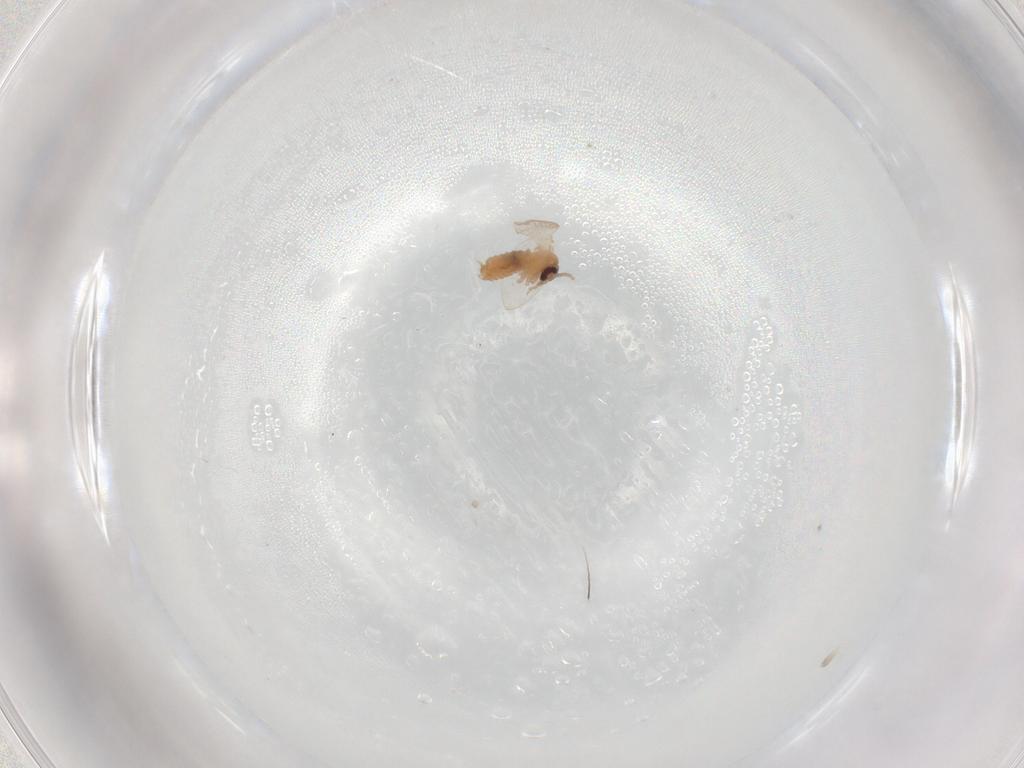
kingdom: Animalia
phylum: Arthropoda
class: Insecta
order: Diptera
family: Psychodidae
